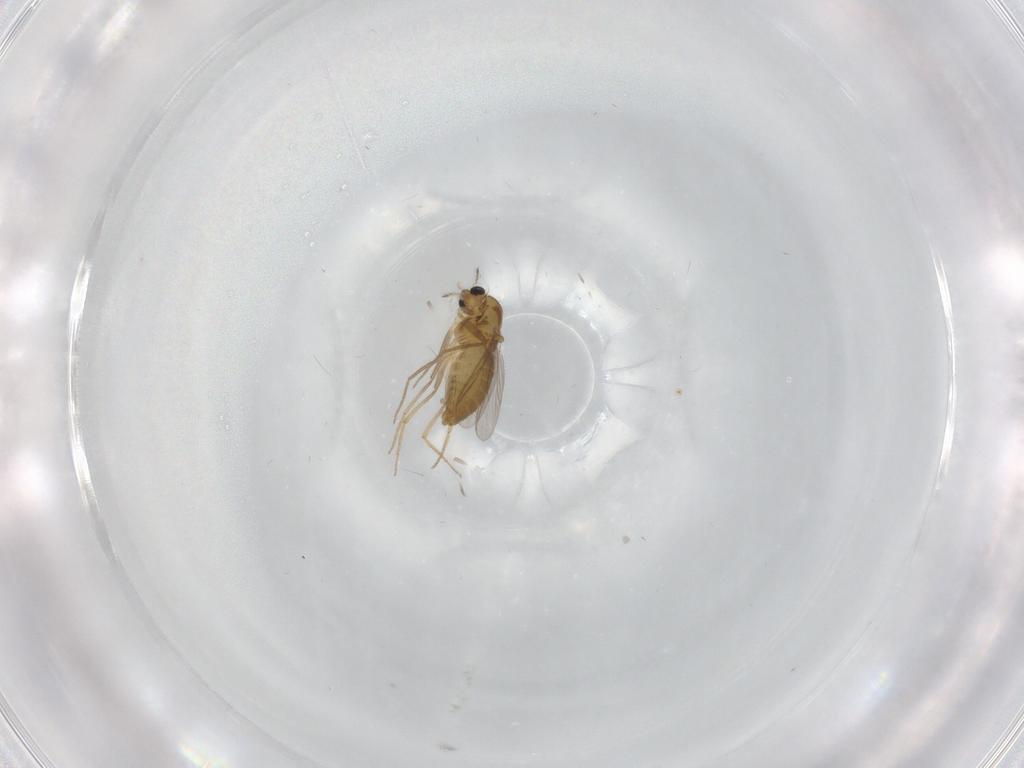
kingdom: Animalia
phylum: Arthropoda
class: Insecta
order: Diptera
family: Chironomidae
